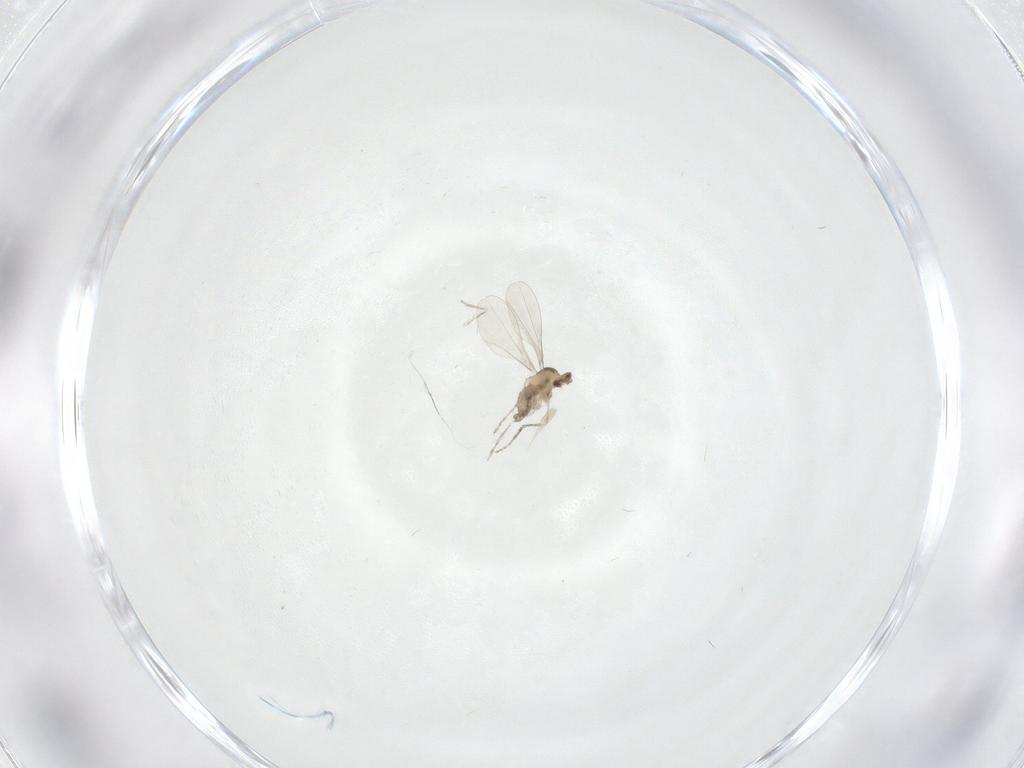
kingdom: Animalia
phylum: Arthropoda
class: Insecta
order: Diptera
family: Cecidomyiidae
